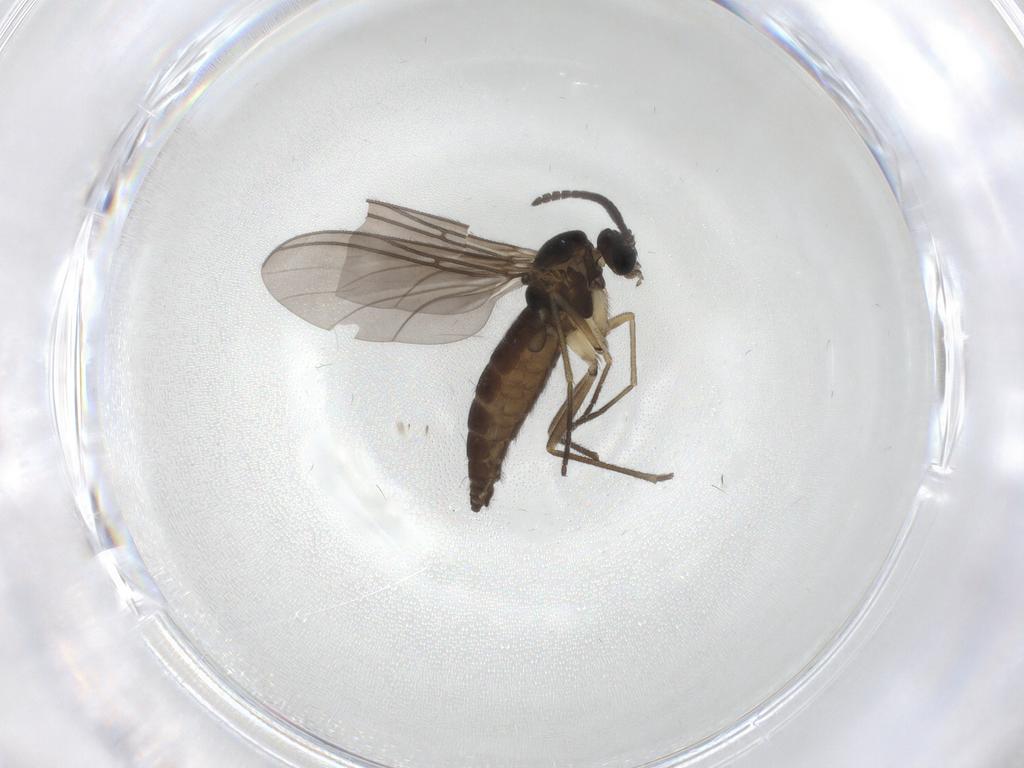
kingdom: Animalia
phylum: Arthropoda
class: Insecta
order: Diptera
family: Sciaridae
